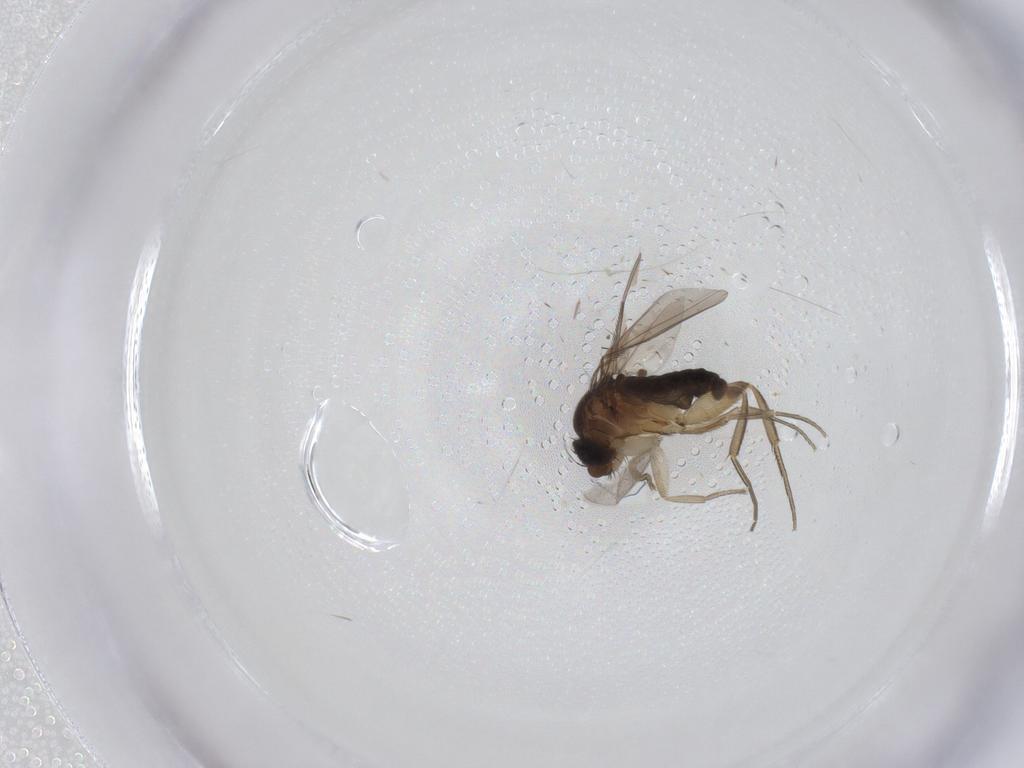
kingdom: Animalia
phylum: Arthropoda
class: Insecta
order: Diptera
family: Phoridae
